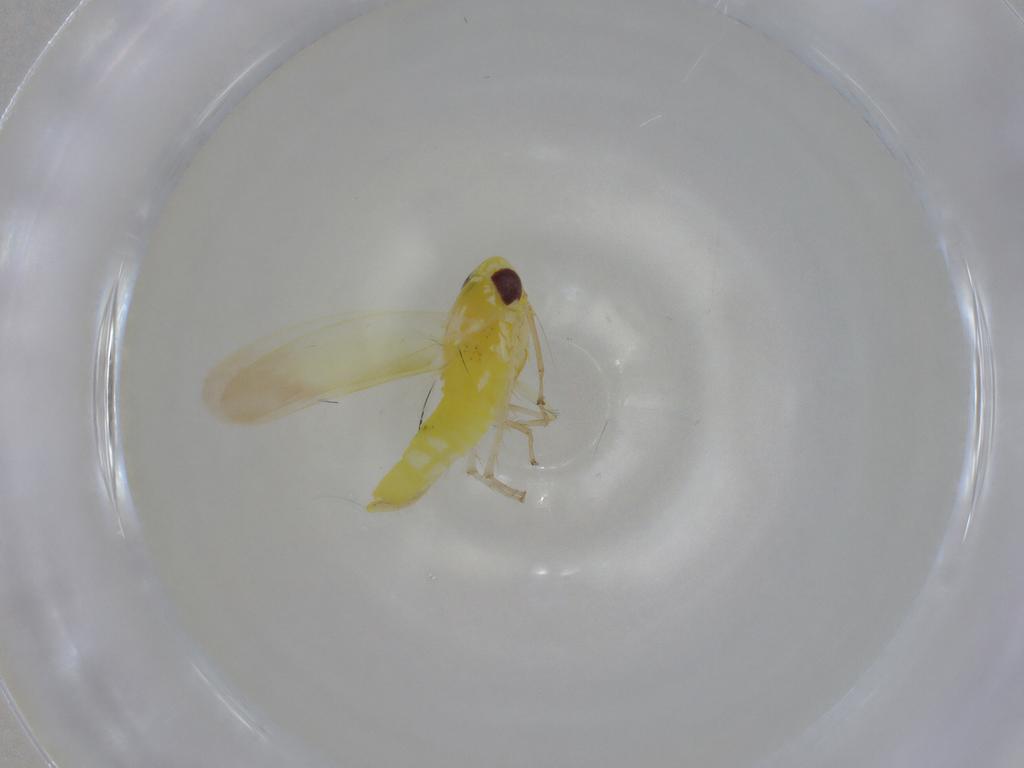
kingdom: Animalia
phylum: Arthropoda
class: Insecta
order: Hemiptera
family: Cicadellidae
